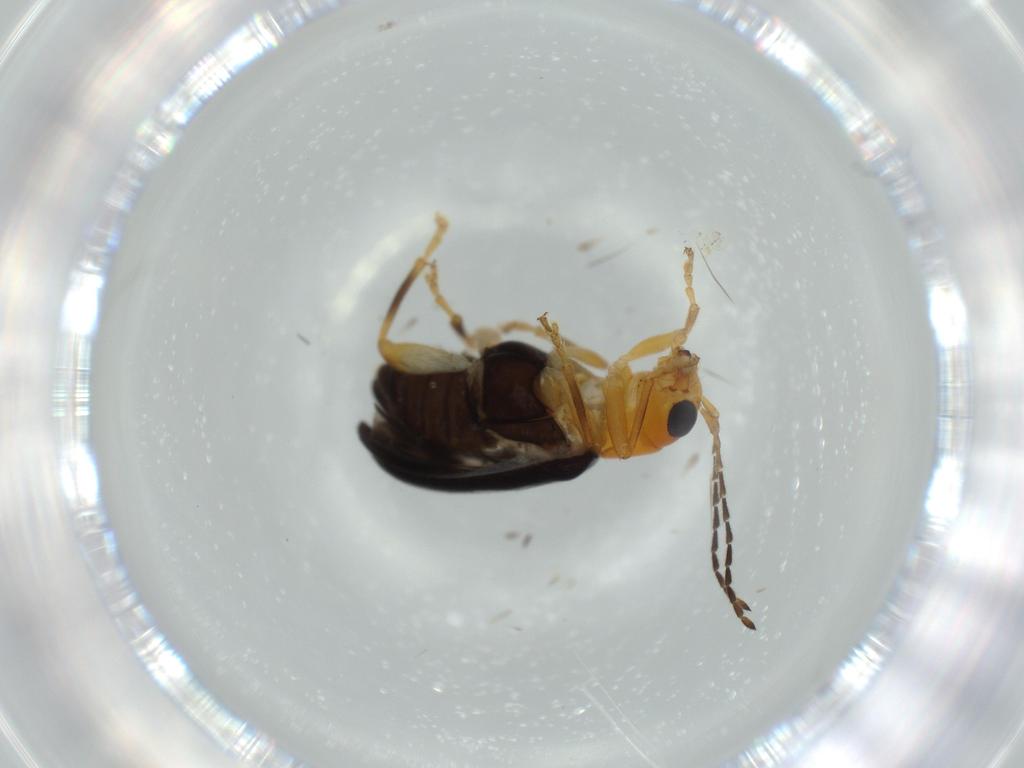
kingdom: Animalia
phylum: Arthropoda
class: Insecta
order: Coleoptera
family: Chrysomelidae
